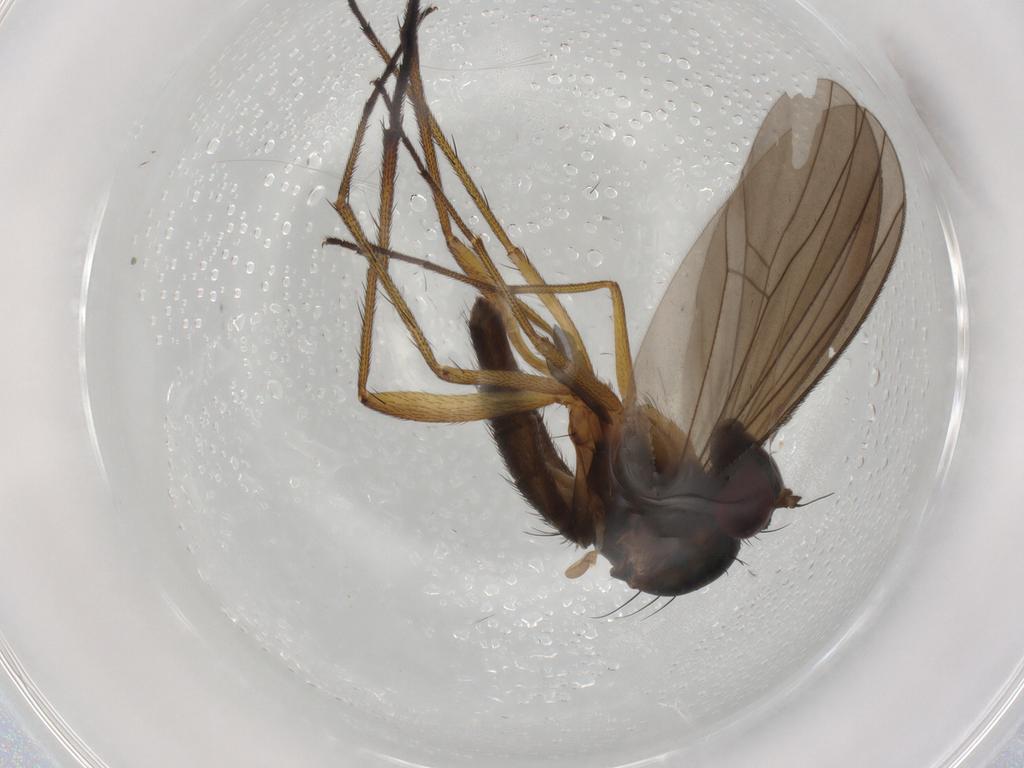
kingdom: Animalia
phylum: Arthropoda
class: Insecta
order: Diptera
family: Dolichopodidae
